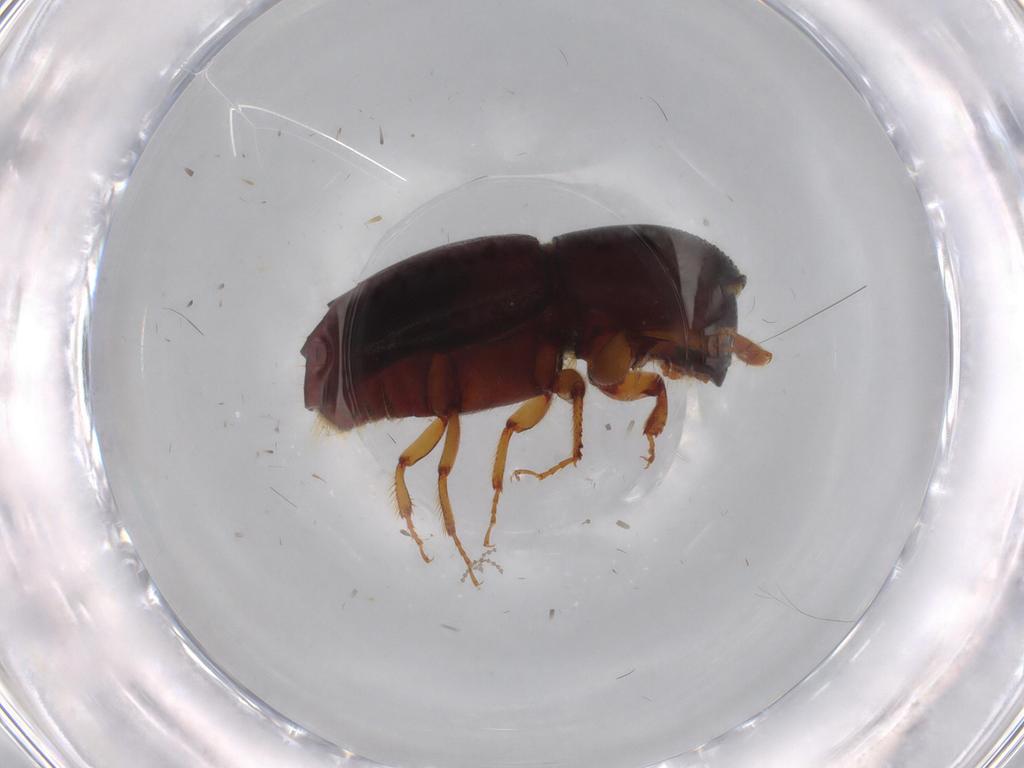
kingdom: Animalia
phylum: Arthropoda
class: Insecta
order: Coleoptera
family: Curculionidae
